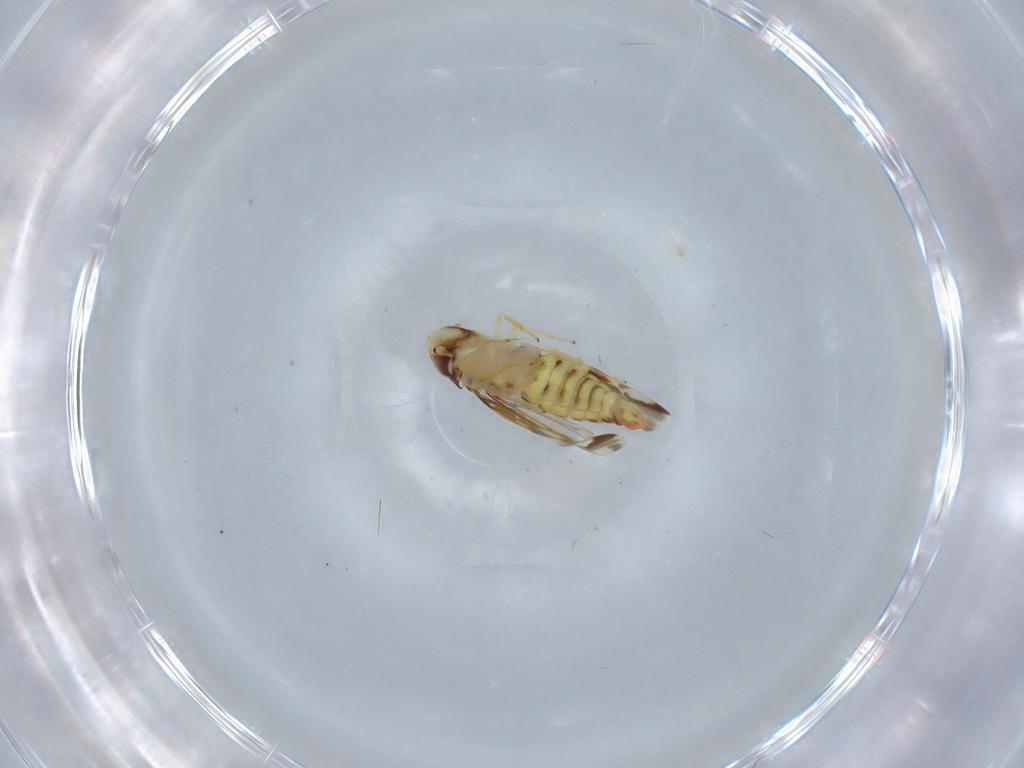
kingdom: Animalia
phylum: Arthropoda
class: Insecta
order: Hemiptera
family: Cicadellidae
